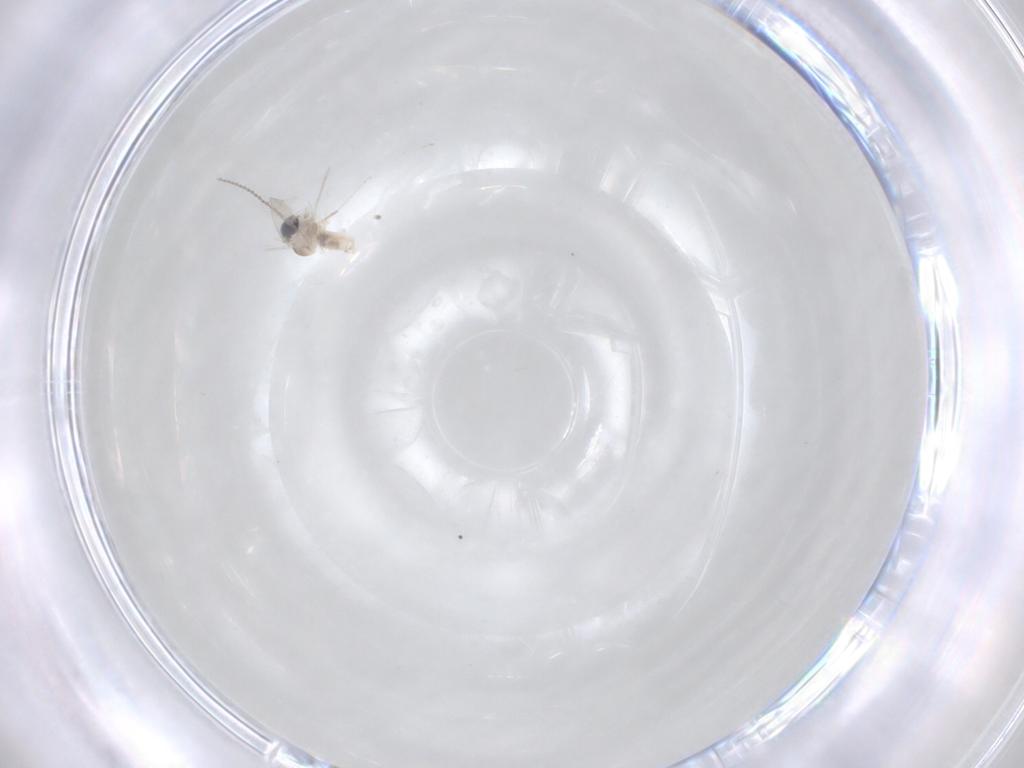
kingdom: Animalia
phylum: Arthropoda
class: Insecta
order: Diptera
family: Cecidomyiidae
